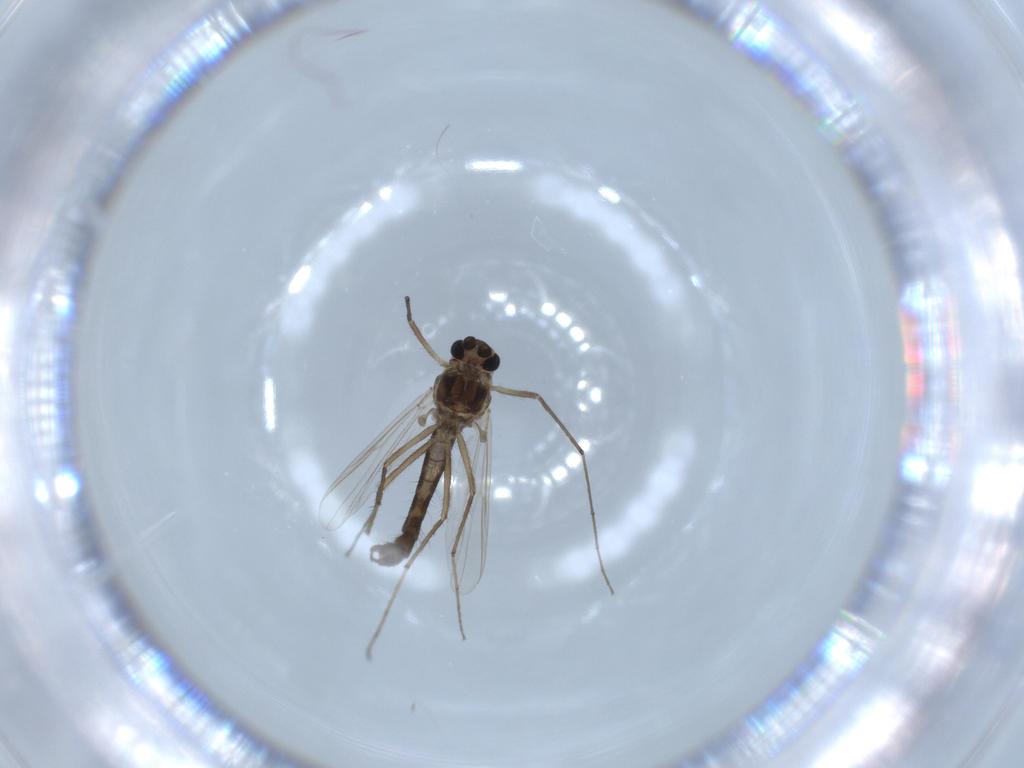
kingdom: Animalia
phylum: Arthropoda
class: Insecta
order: Diptera
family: Chironomidae
